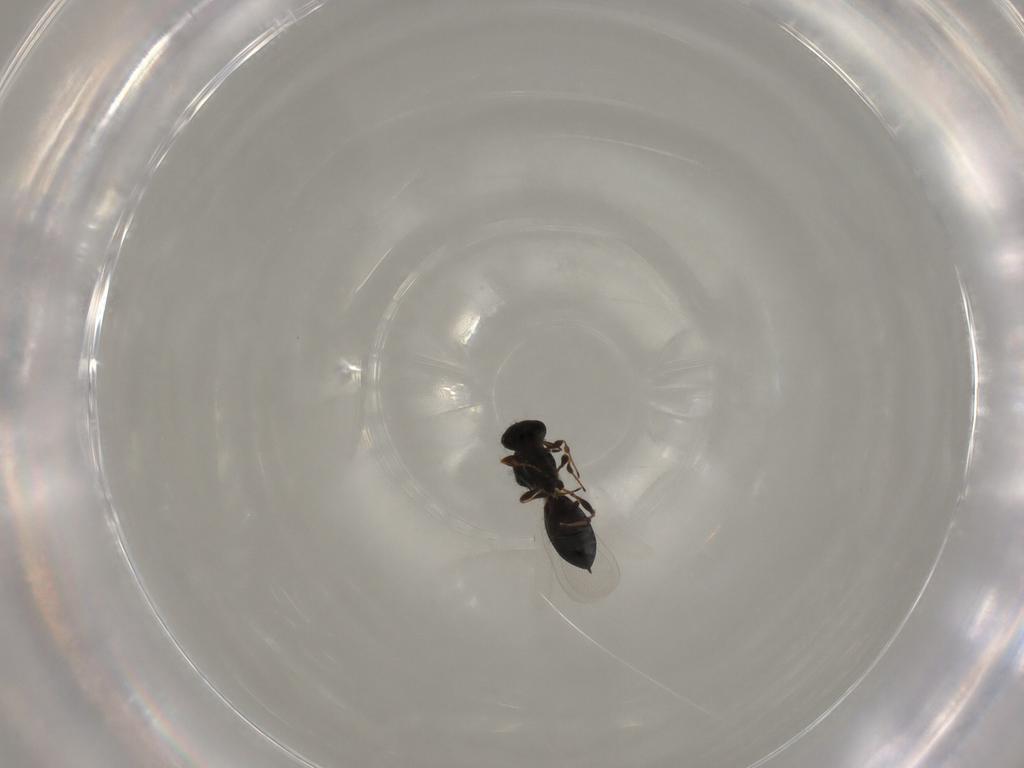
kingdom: Animalia
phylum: Arthropoda
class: Insecta
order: Hymenoptera
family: Platygastridae
